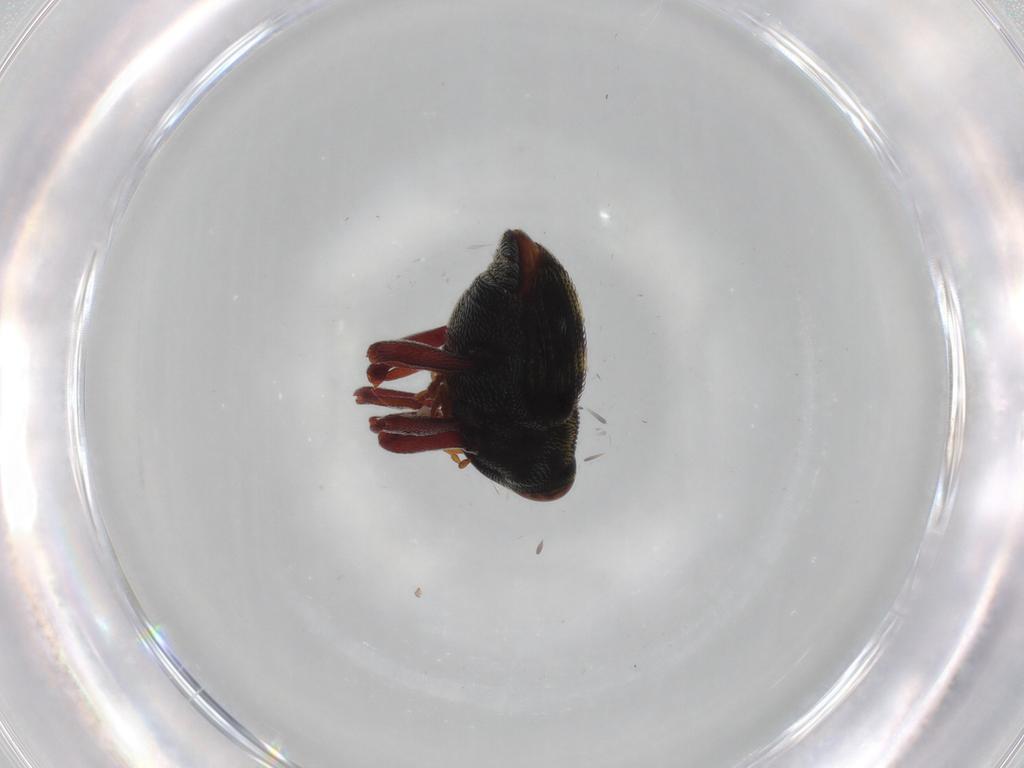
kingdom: Animalia
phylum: Arthropoda
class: Insecta
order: Coleoptera
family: Curculionidae
